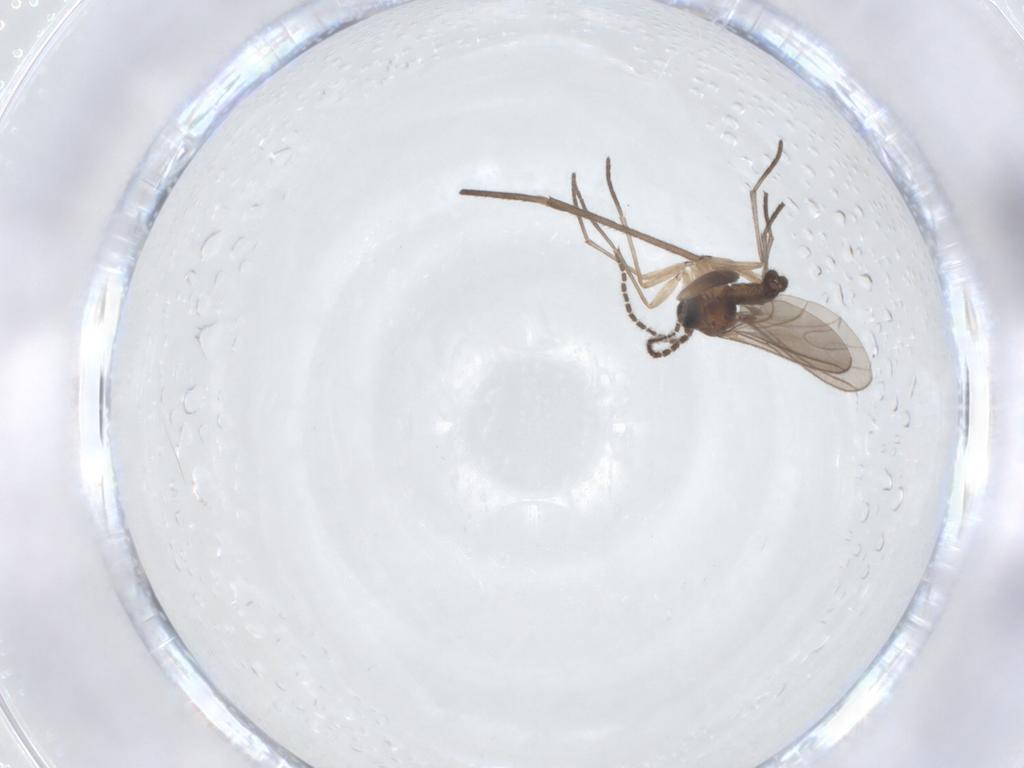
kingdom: Animalia
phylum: Arthropoda
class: Insecta
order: Diptera
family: Sciaridae
